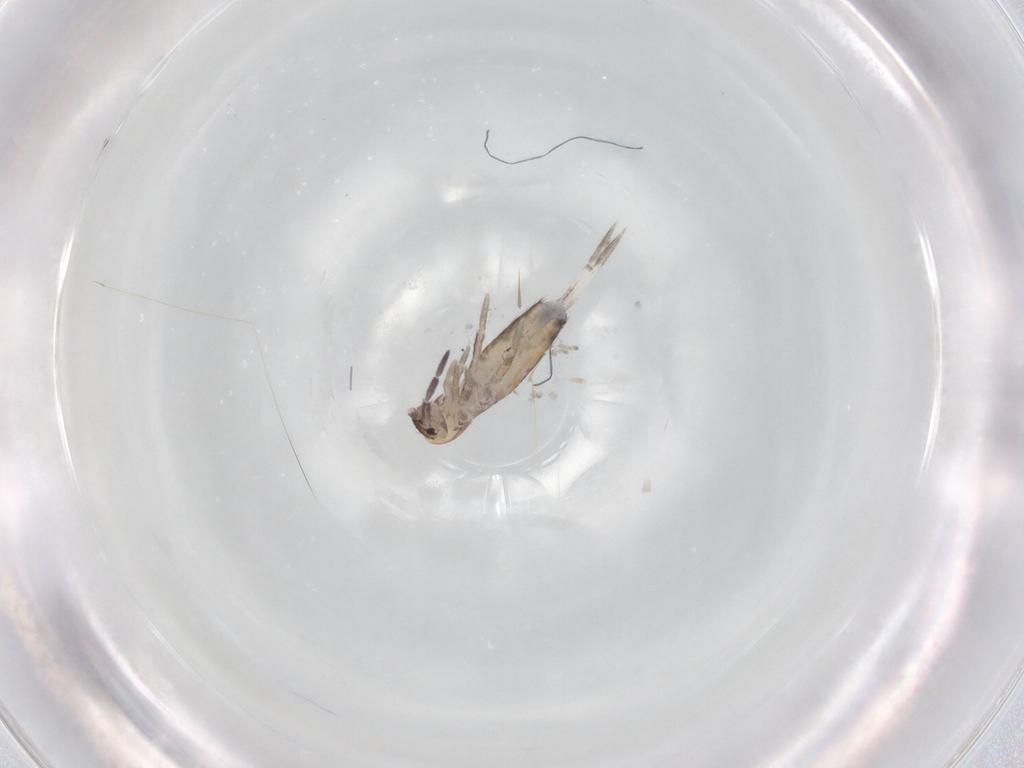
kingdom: Animalia
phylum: Arthropoda
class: Collembola
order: Entomobryomorpha
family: Entomobryidae
